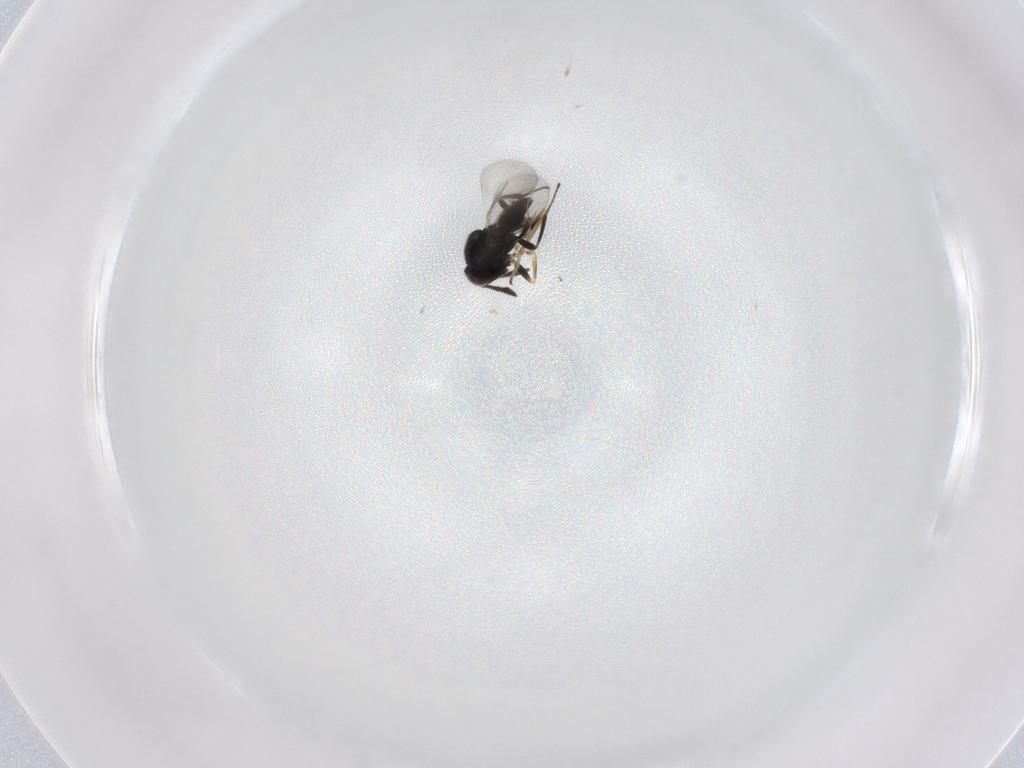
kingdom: Animalia
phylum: Arthropoda
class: Insecta
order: Hymenoptera
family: Encyrtidae
